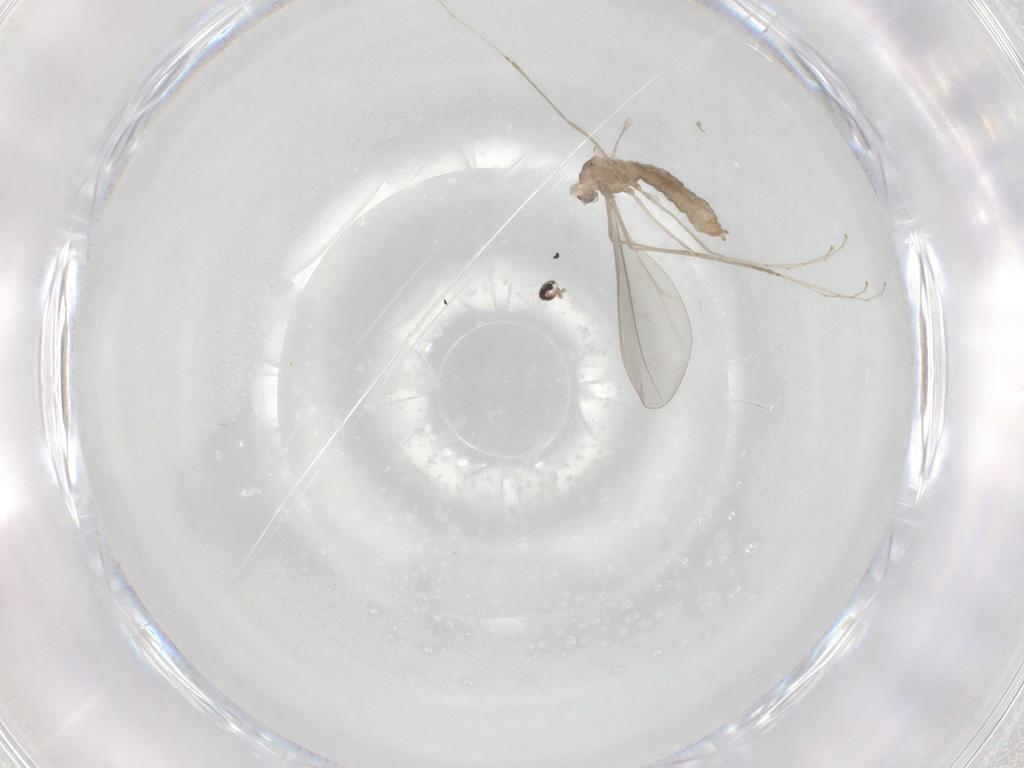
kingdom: Animalia
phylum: Arthropoda
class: Insecta
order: Diptera
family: Cecidomyiidae
